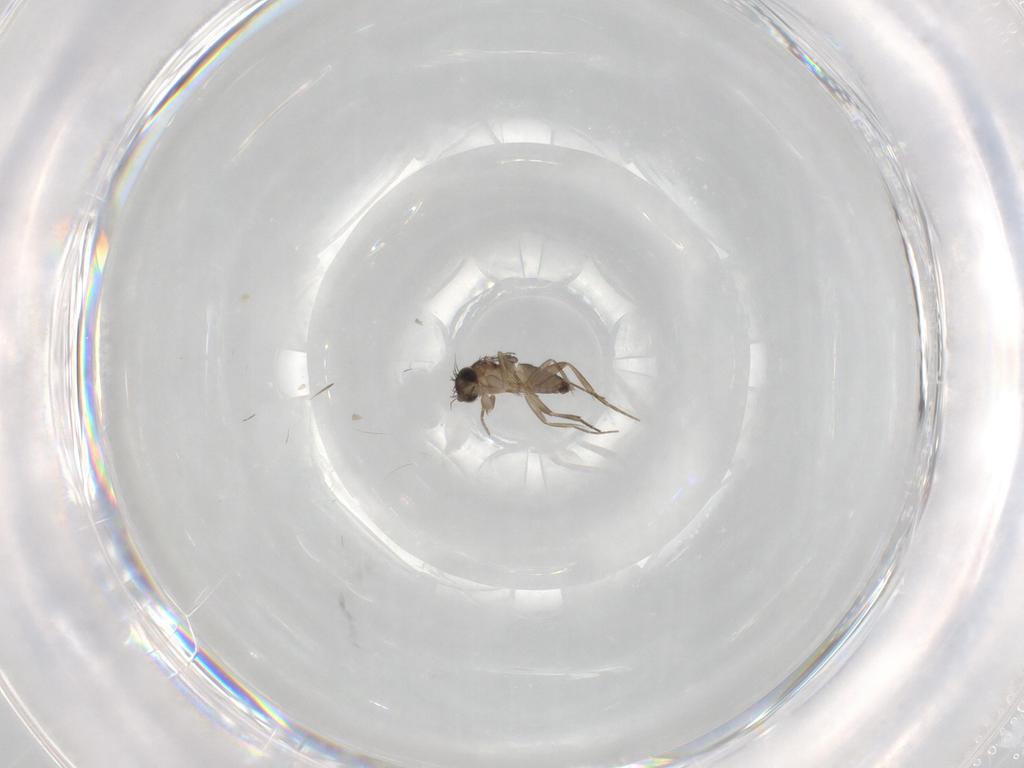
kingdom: Animalia
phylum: Arthropoda
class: Insecta
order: Diptera
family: Phoridae
